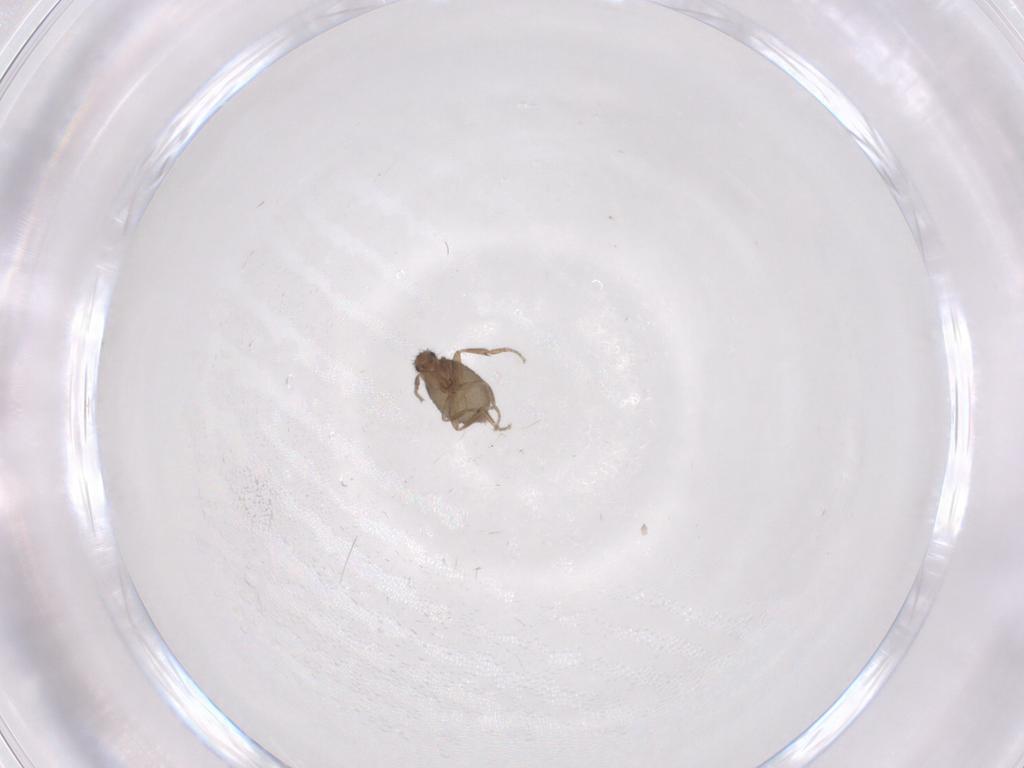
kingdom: Animalia
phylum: Arthropoda
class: Insecta
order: Diptera
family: Phoridae
